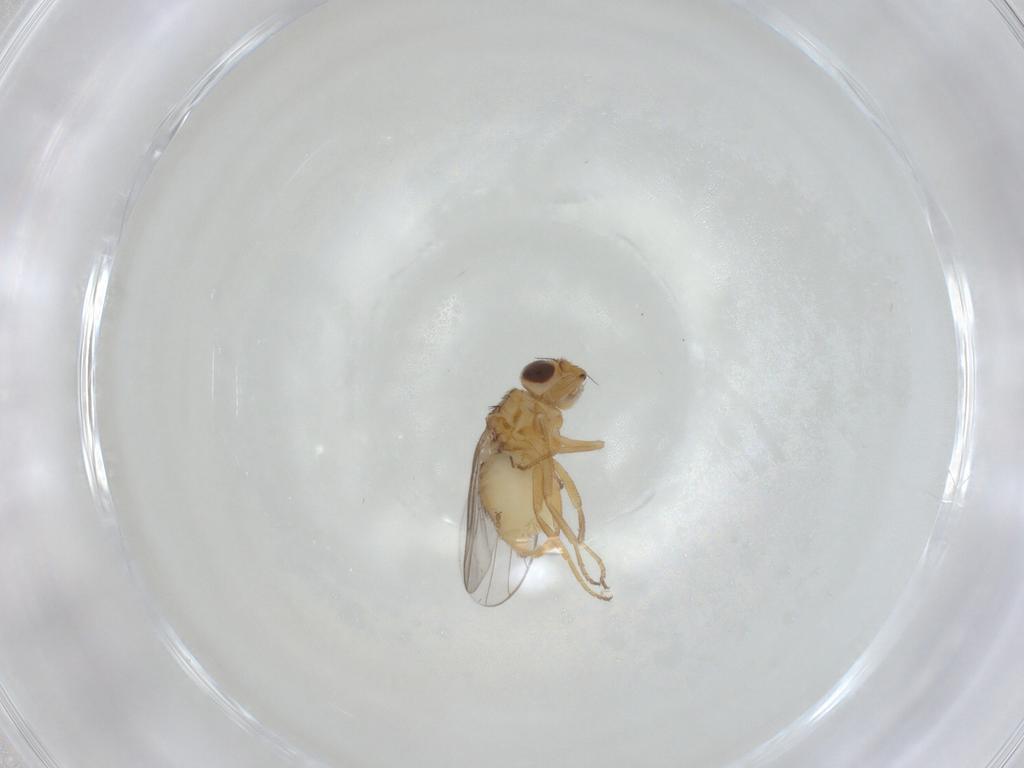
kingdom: Animalia
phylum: Arthropoda
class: Insecta
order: Diptera
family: Chloropidae
